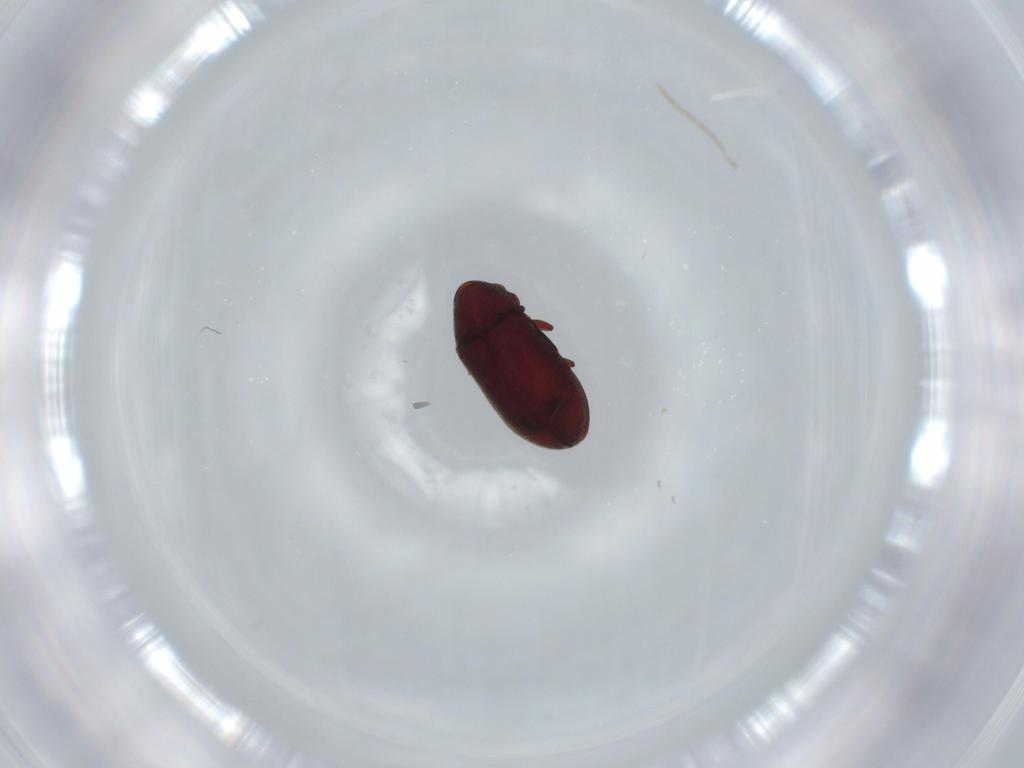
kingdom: Animalia
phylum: Arthropoda
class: Insecta
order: Coleoptera
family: Ptinidae
